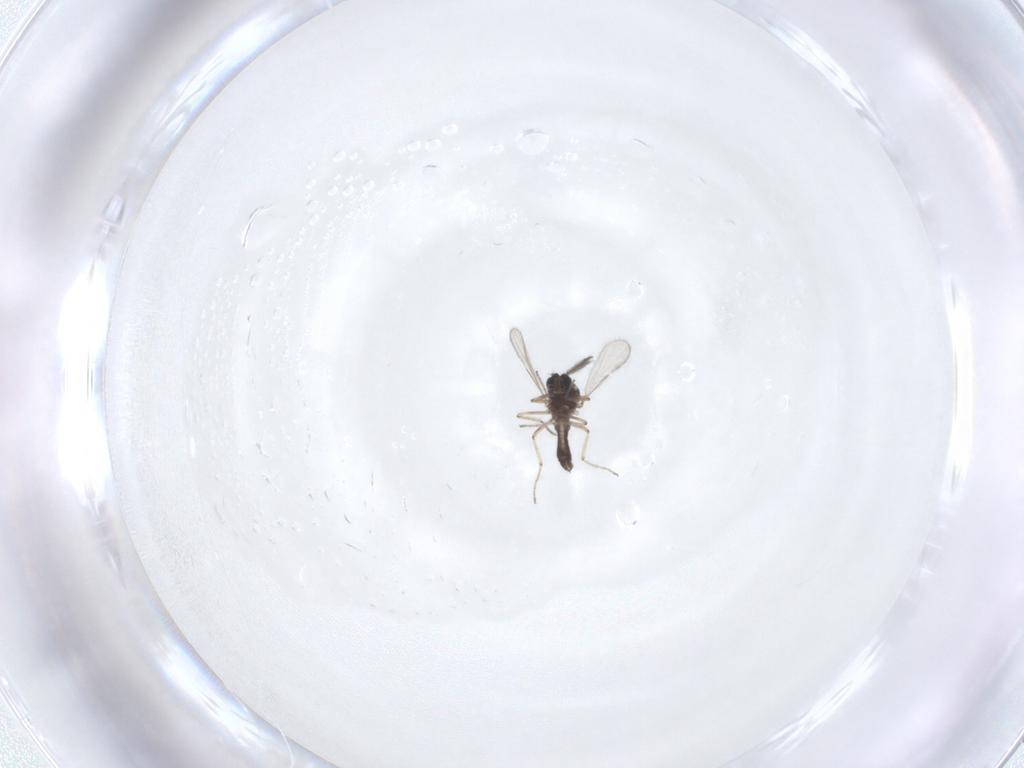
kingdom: Animalia
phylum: Arthropoda
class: Insecta
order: Diptera
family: Ceratopogonidae
